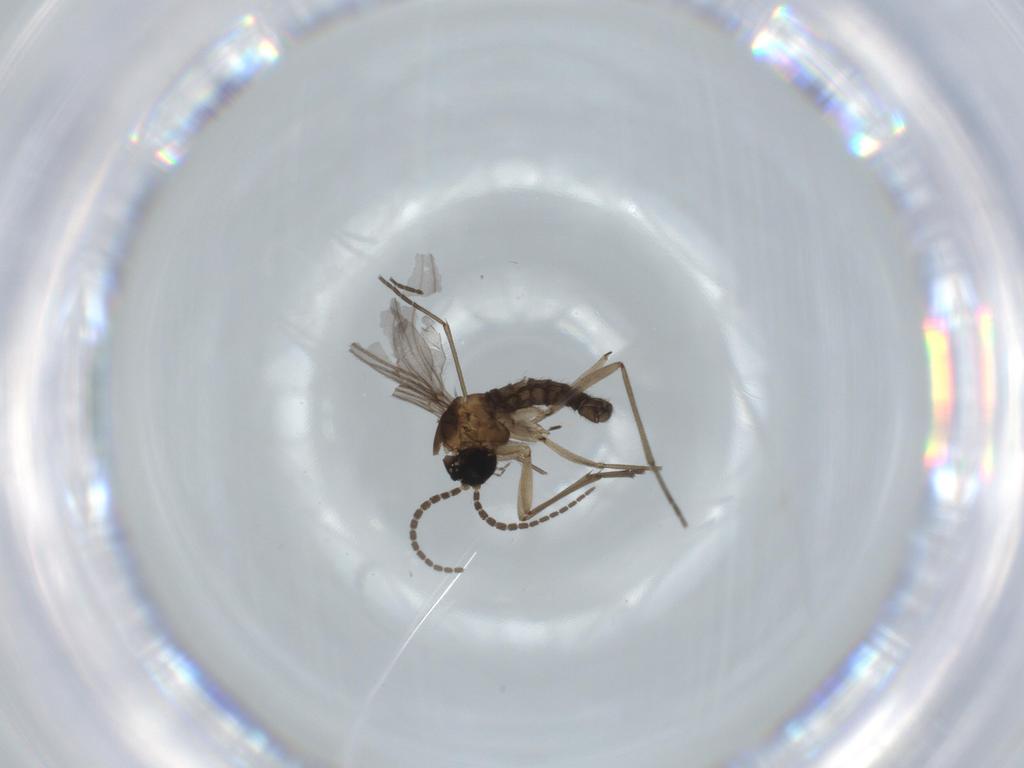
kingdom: Animalia
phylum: Arthropoda
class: Insecta
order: Diptera
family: Sciaridae
